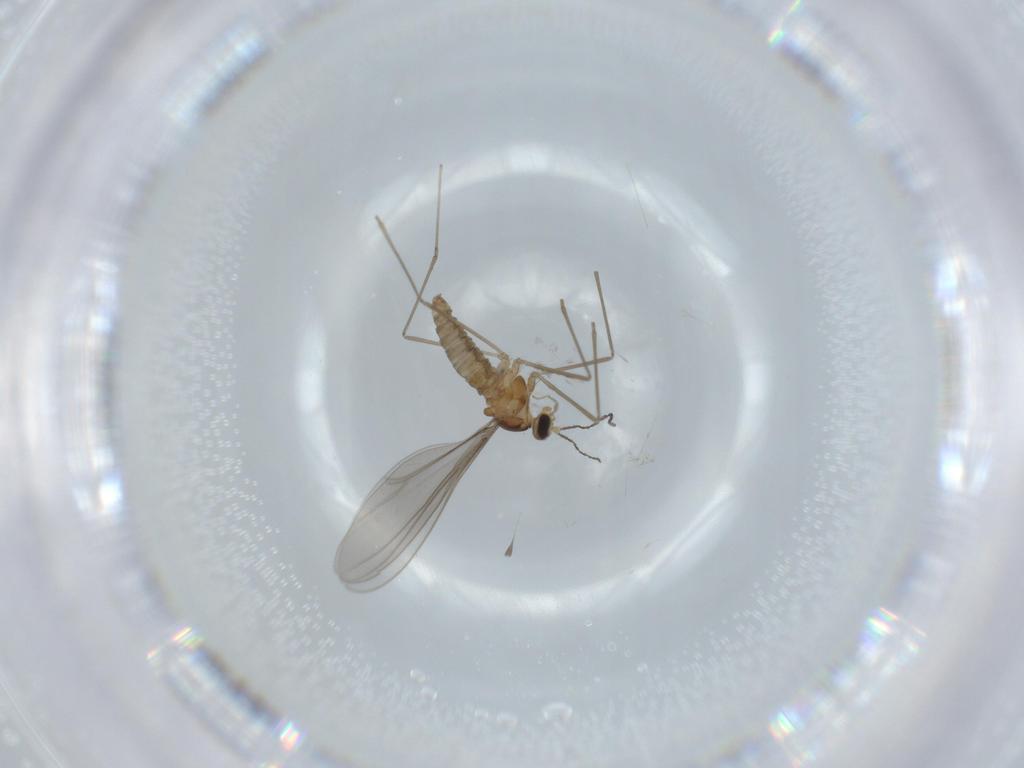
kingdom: Animalia
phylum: Arthropoda
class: Insecta
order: Diptera
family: Cecidomyiidae
